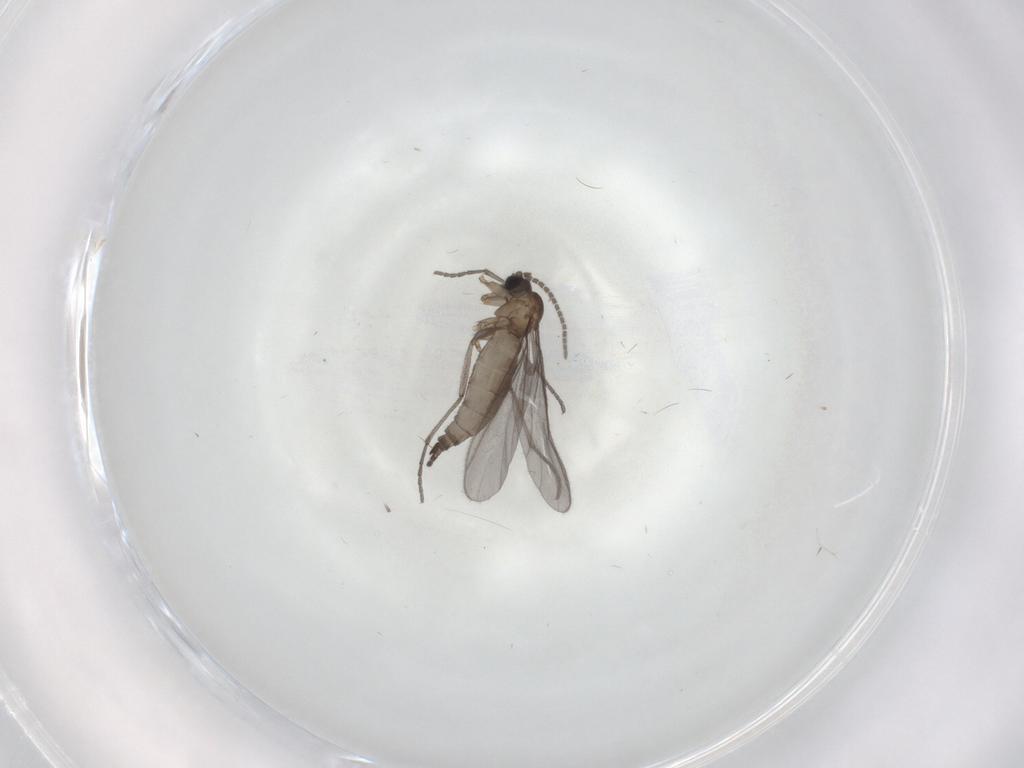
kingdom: Animalia
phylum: Arthropoda
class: Insecta
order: Diptera
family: Sciaridae
